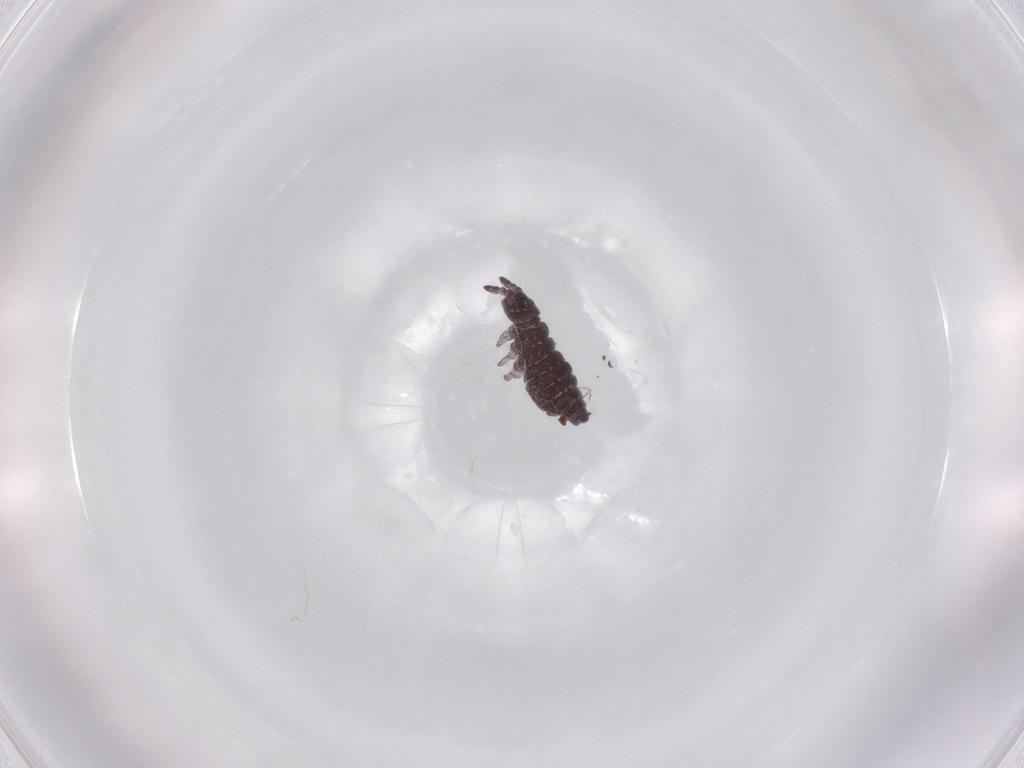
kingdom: Animalia
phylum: Arthropoda
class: Collembola
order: Poduromorpha
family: Hypogastruridae
